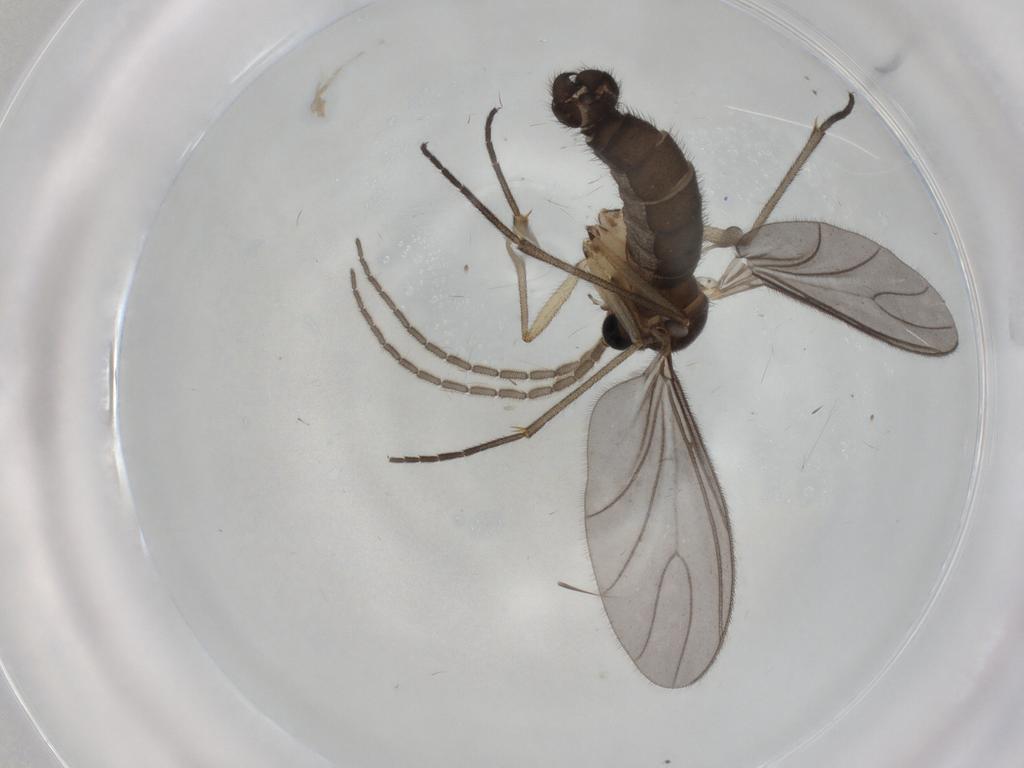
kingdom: Animalia
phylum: Arthropoda
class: Insecta
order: Diptera
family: Sciaridae
